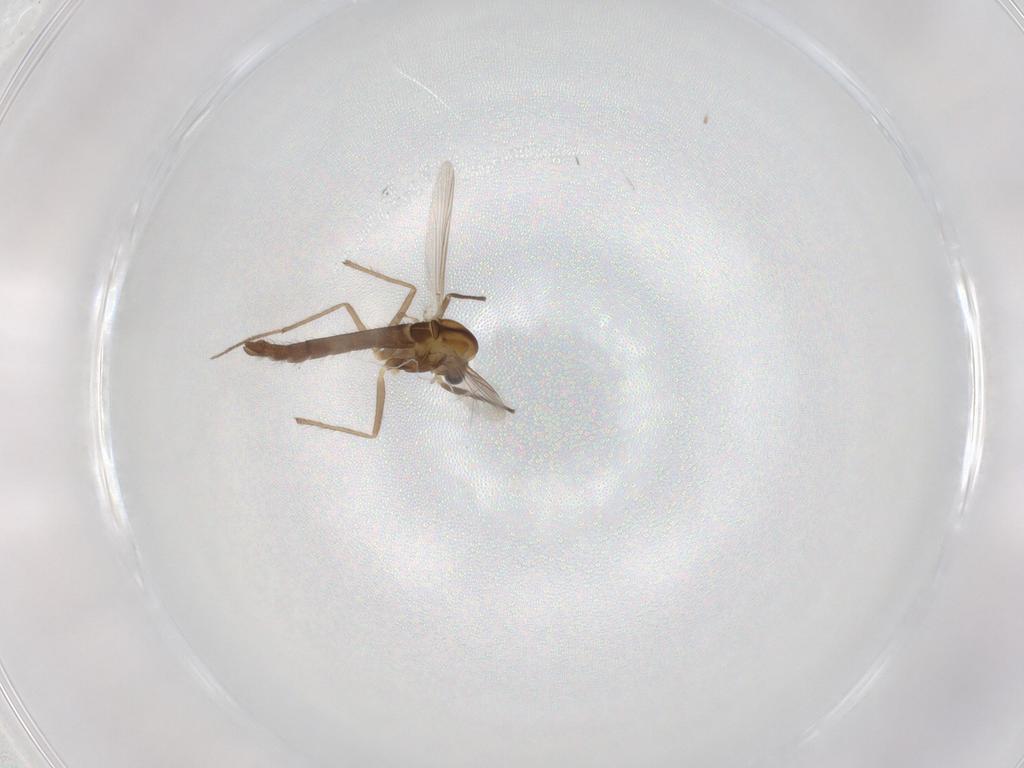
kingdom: Animalia
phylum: Arthropoda
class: Insecta
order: Diptera
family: Chironomidae
